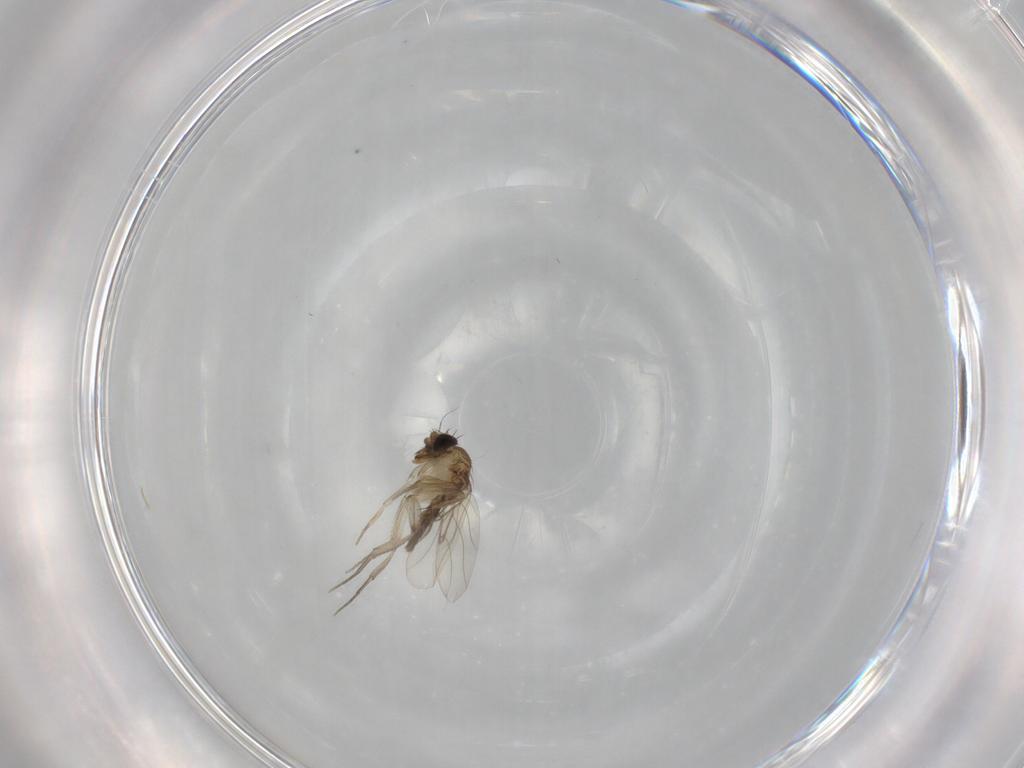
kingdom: Animalia
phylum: Arthropoda
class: Insecta
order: Diptera
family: Phoridae
